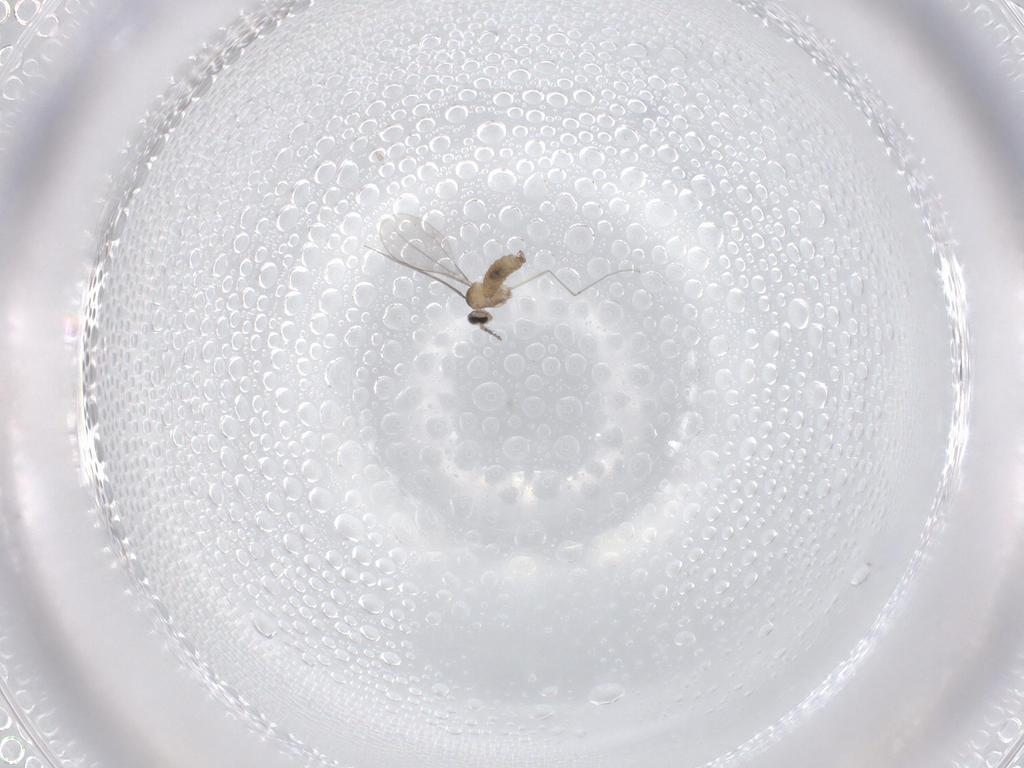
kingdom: Animalia
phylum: Arthropoda
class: Insecta
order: Diptera
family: Cecidomyiidae
